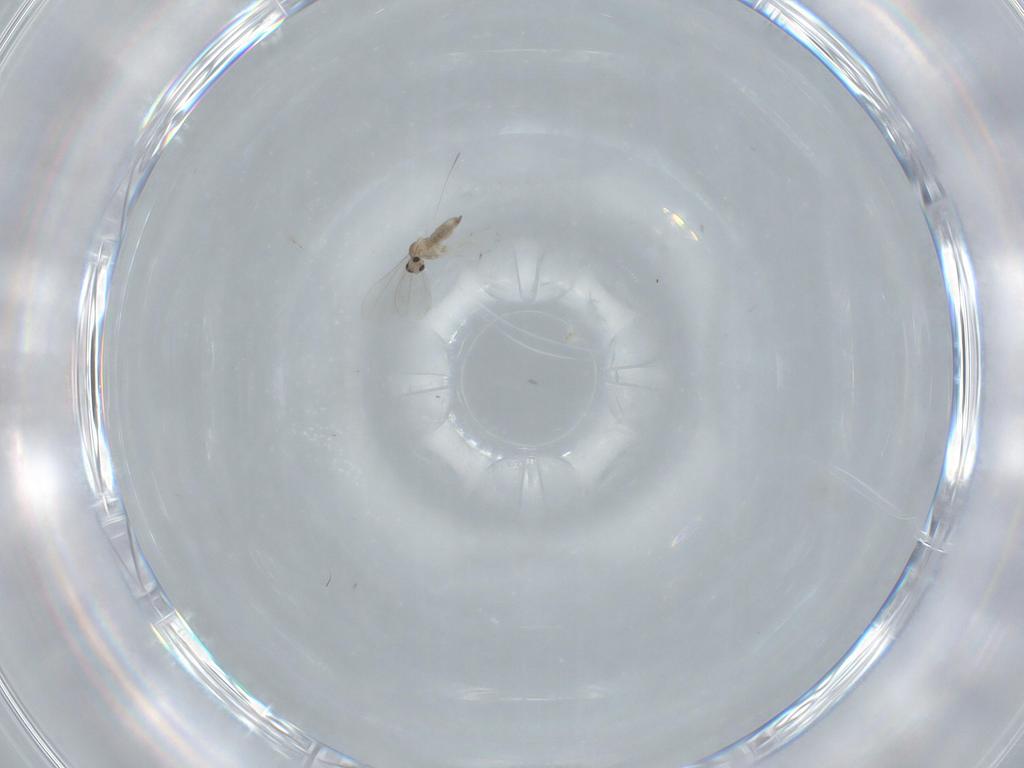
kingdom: Animalia
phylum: Arthropoda
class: Insecta
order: Diptera
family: Cecidomyiidae
